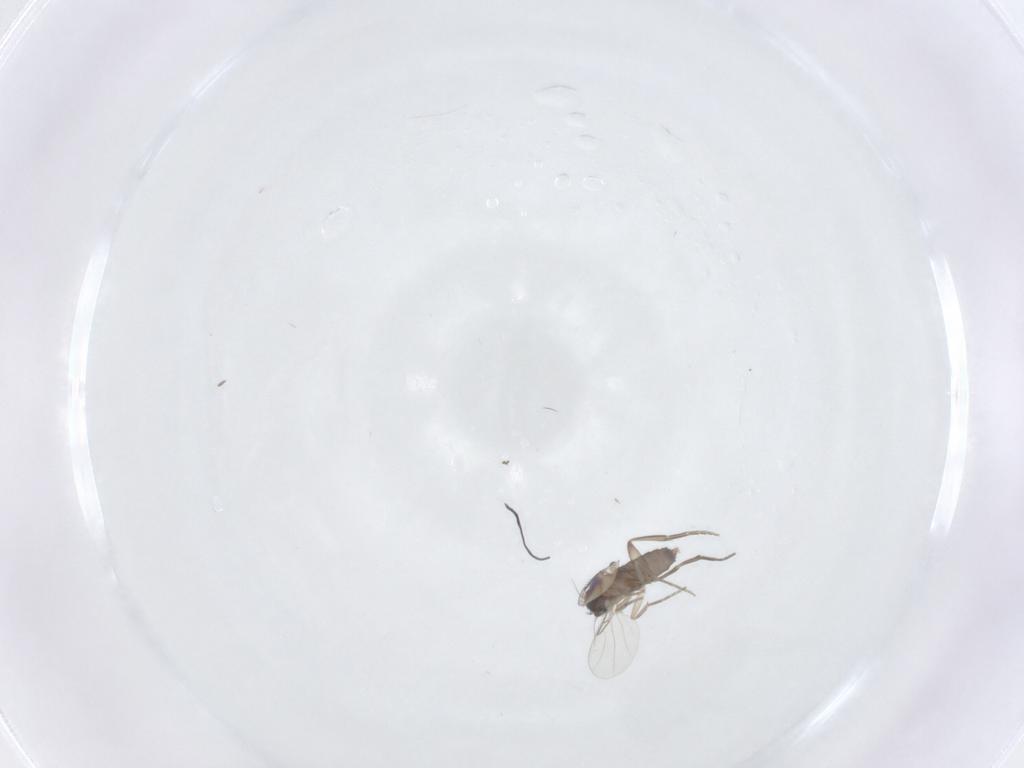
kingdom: Animalia
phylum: Arthropoda
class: Insecta
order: Diptera
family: Phoridae
